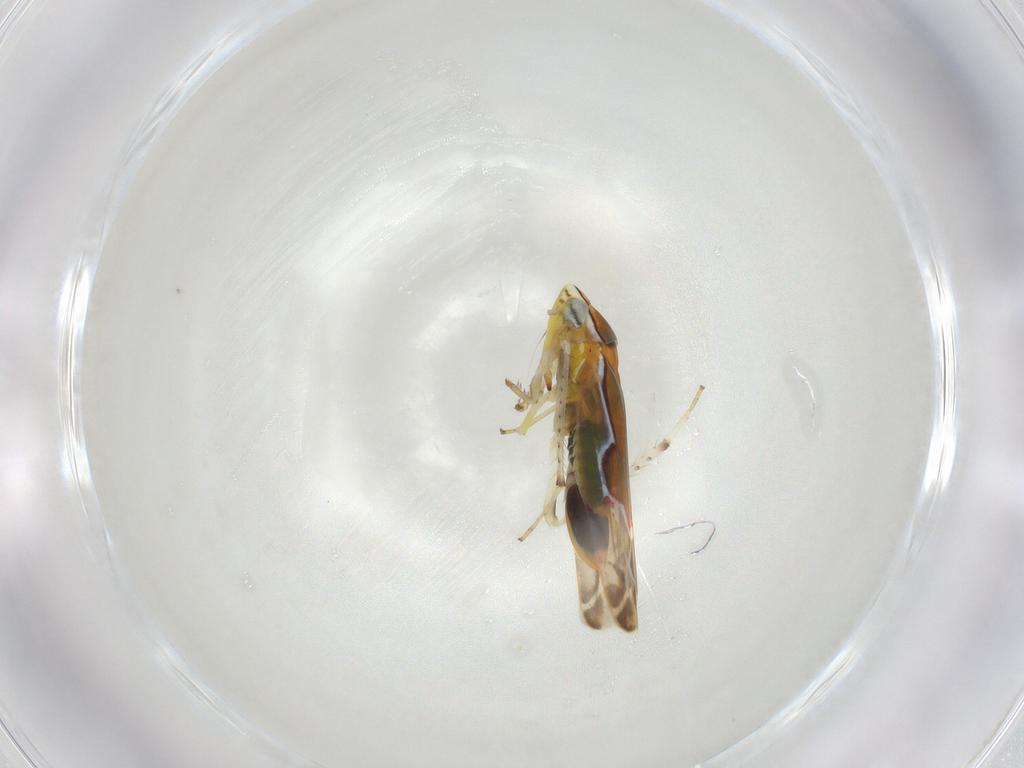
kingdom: Animalia
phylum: Arthropoda
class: Insecta
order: Hemiptera
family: Cicadellidae
